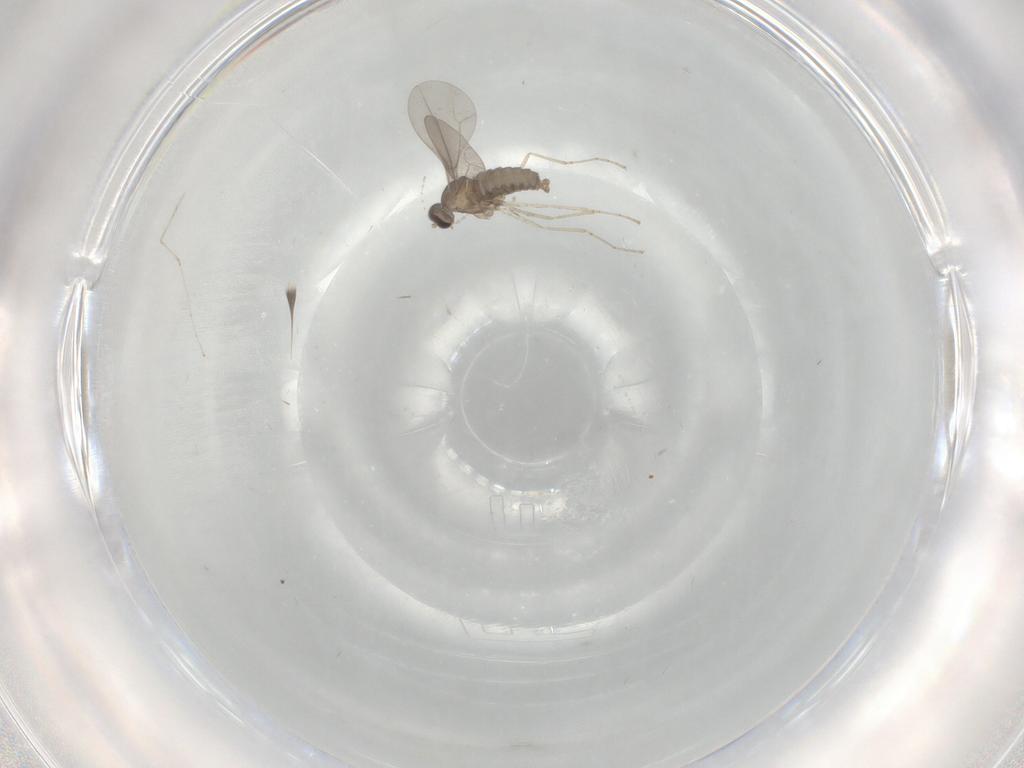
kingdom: Animalia
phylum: Arthropoda
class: Insecta
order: Diptera
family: Cecidomyiidae
